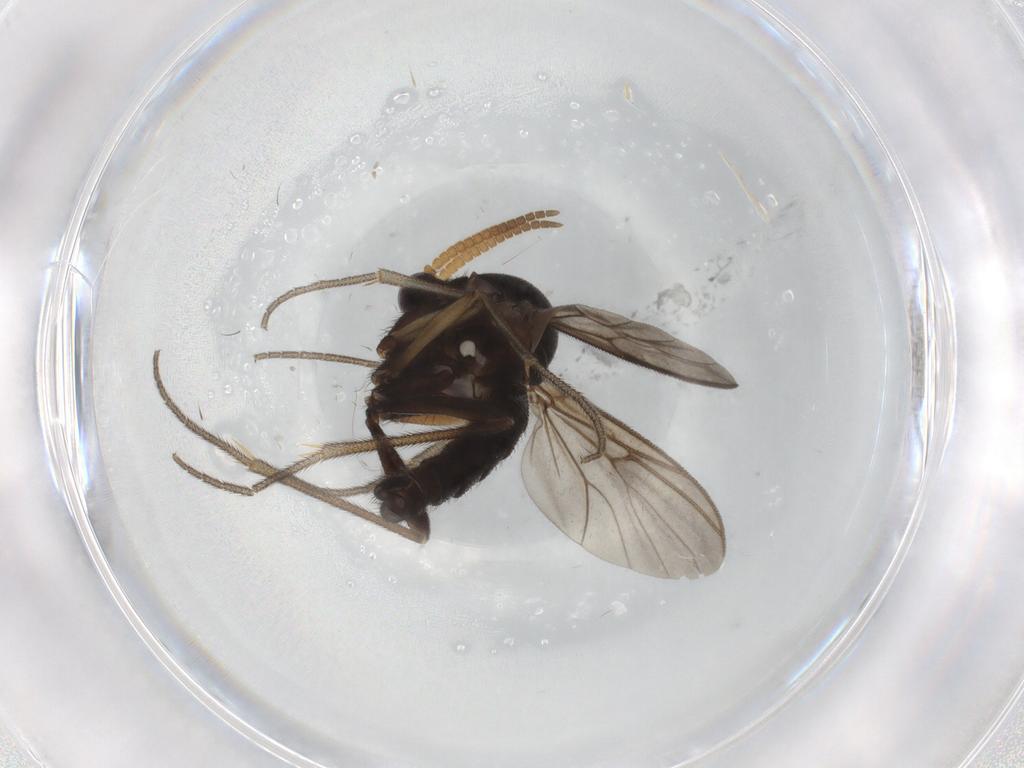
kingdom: Animalia
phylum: Arthropoda
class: Insecta
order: Diptera
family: Mycetophilidae
